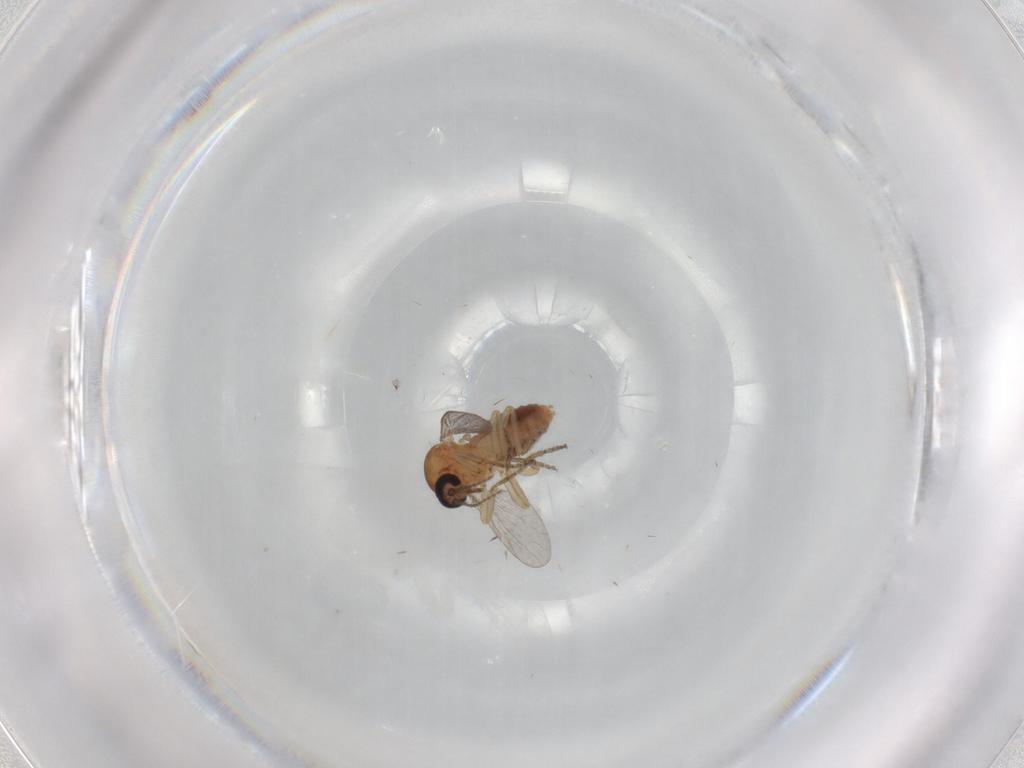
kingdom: Animalia
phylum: Arthropoda
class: Insecta
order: Diptera
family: Ceratopogonidae
